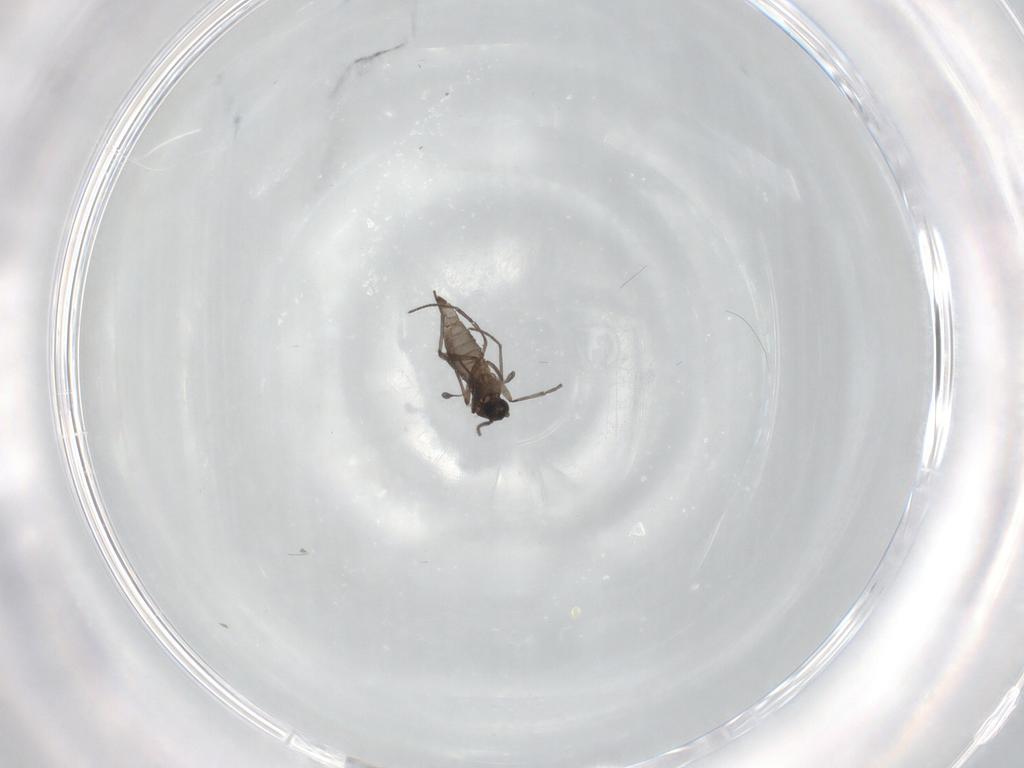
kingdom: Animalia
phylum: Arthropoda
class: Insecta
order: Diptera
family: Sciaridae
